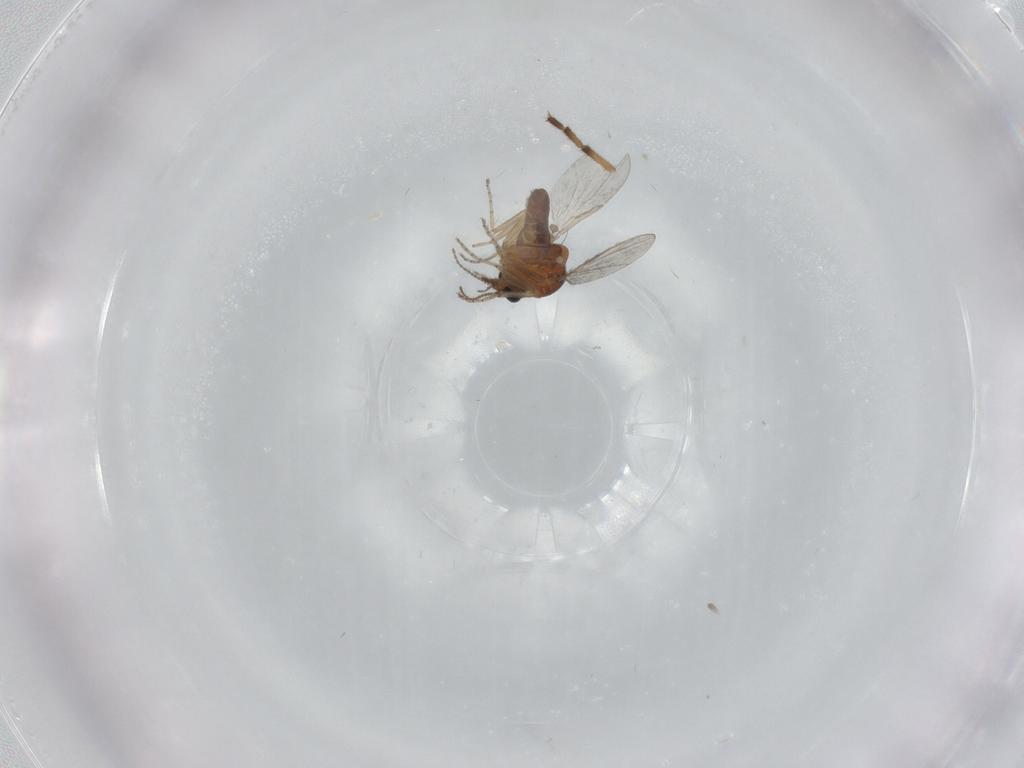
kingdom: Animalia
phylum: Arthropoda
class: Insecta
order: Diptera
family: Chironomidae
